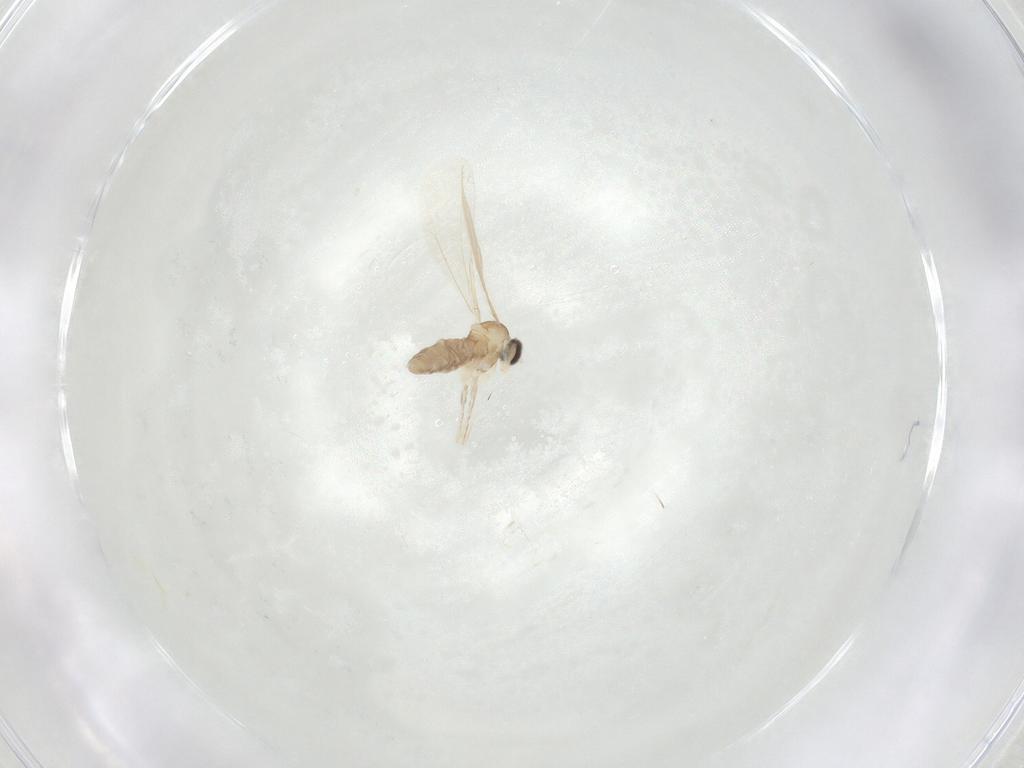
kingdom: Animalia
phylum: Arthropoda
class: Insecta
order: Diptera
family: Cecidomyiidae
